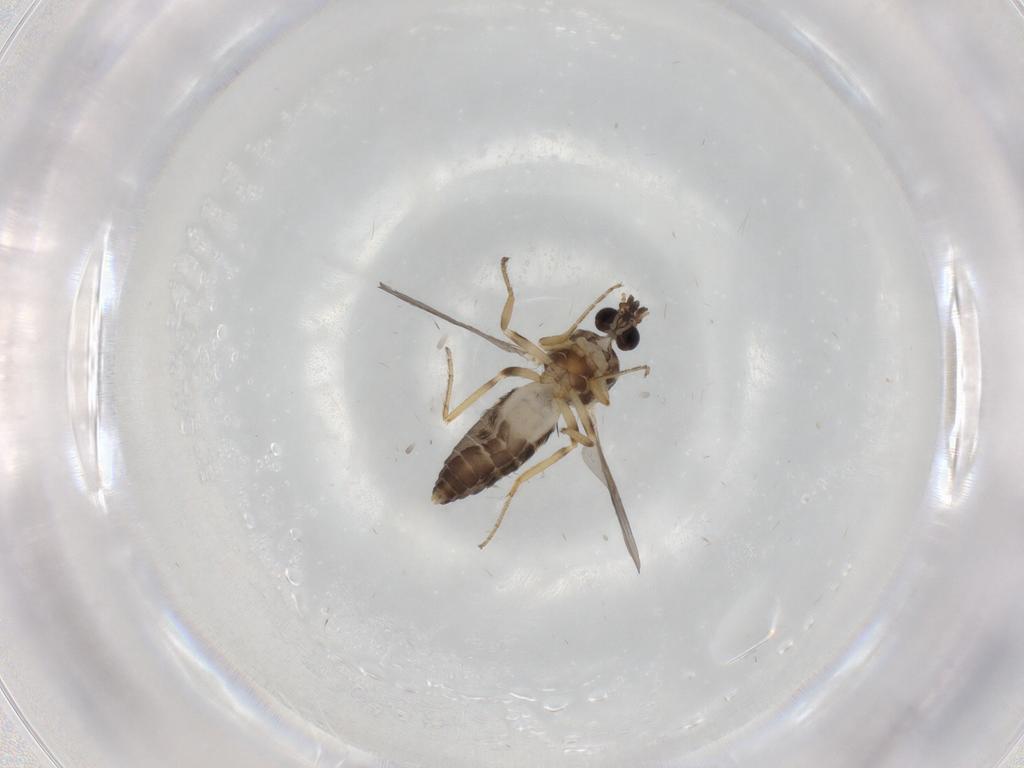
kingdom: Animalia
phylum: Arthropoda
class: Insecta
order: Diptera
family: Ceratopogonidae
